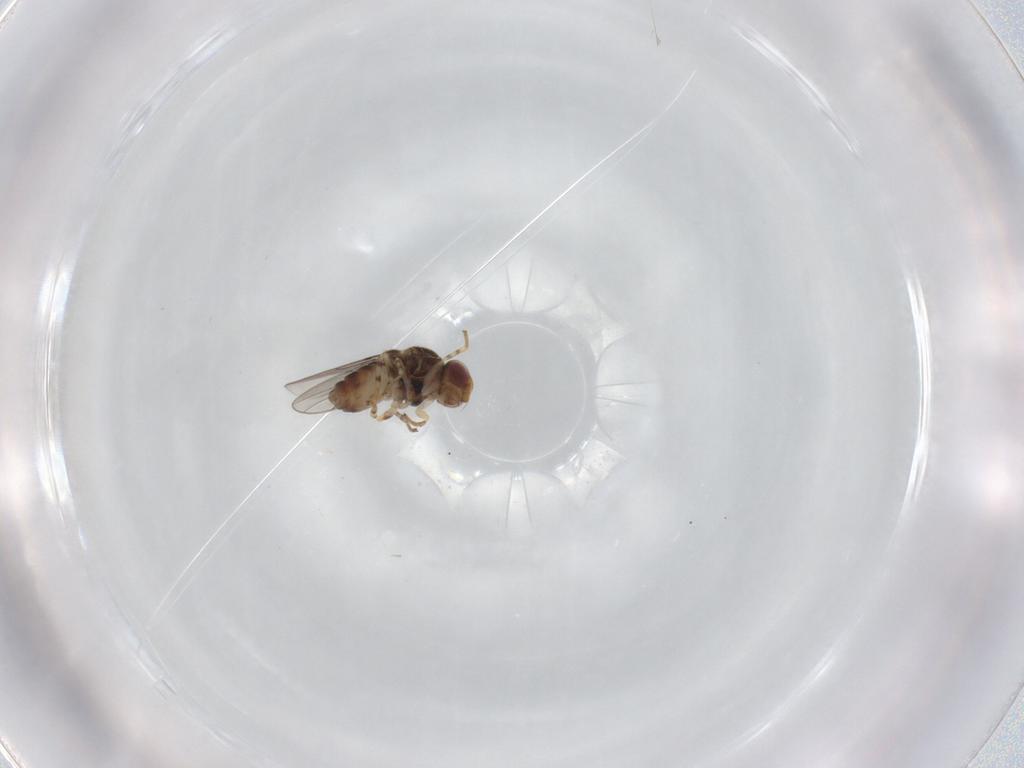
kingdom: Animalia
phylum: Arthropoda
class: Insecta
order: Diptera
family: Chloropidae
